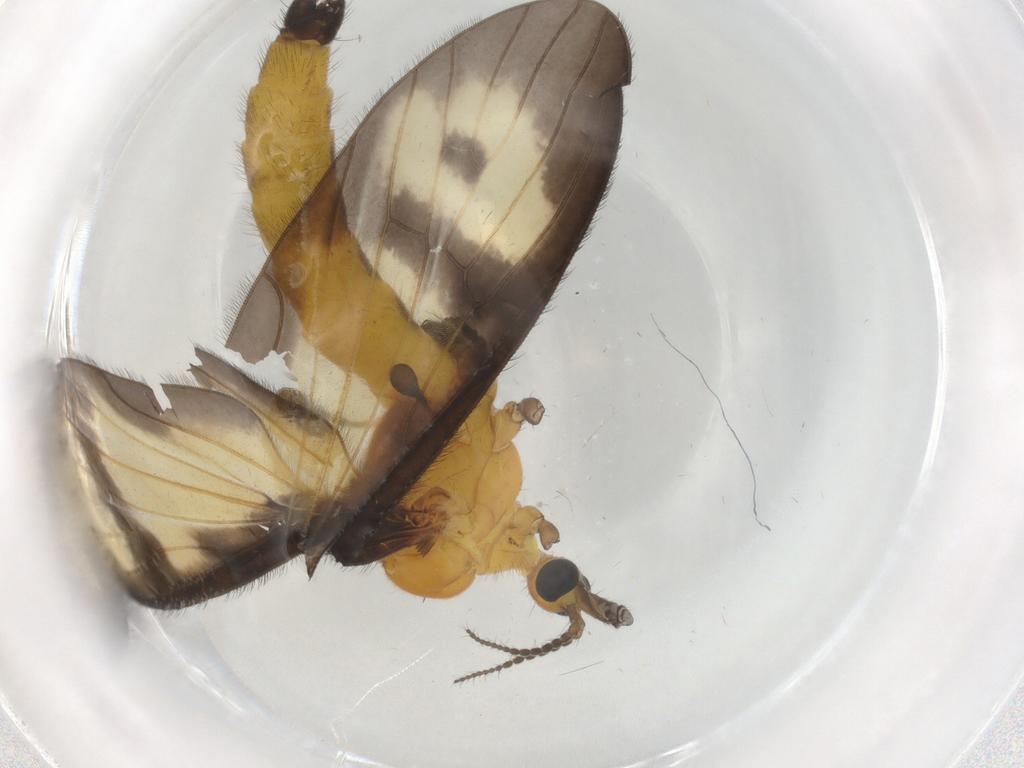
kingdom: Animalia
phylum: Arthropoda
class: Insecta
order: Diptera
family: Limoniidae
